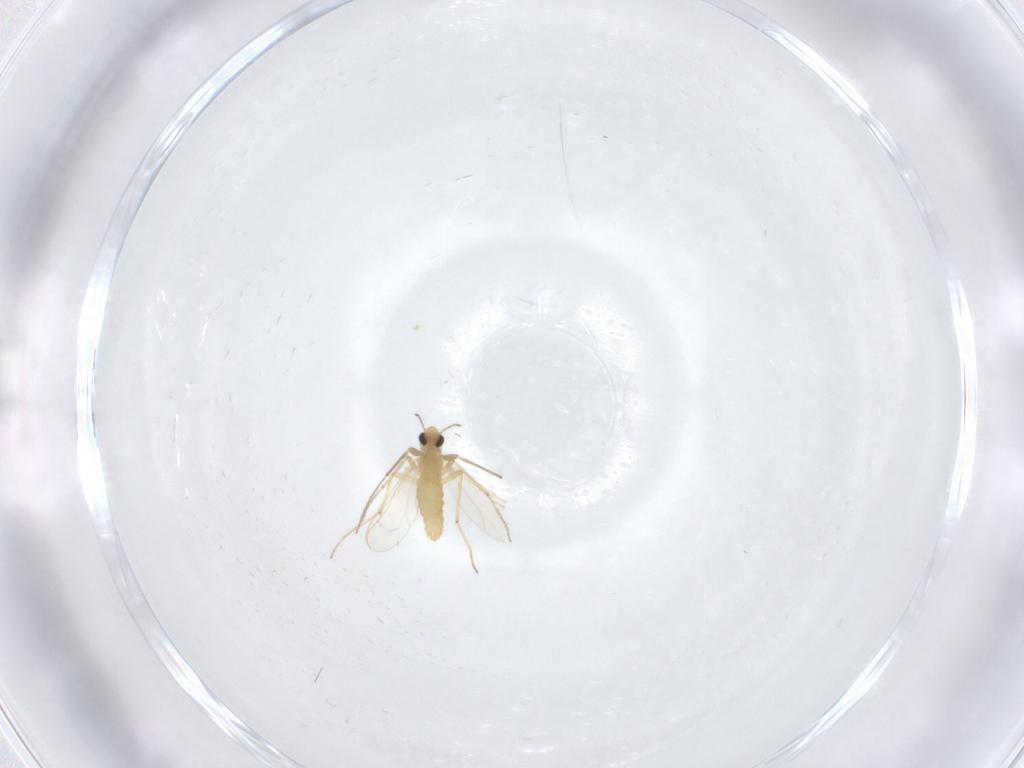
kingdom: Animalia
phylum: Arthropoda
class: Insecta
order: Diptera
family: Chironomidae
